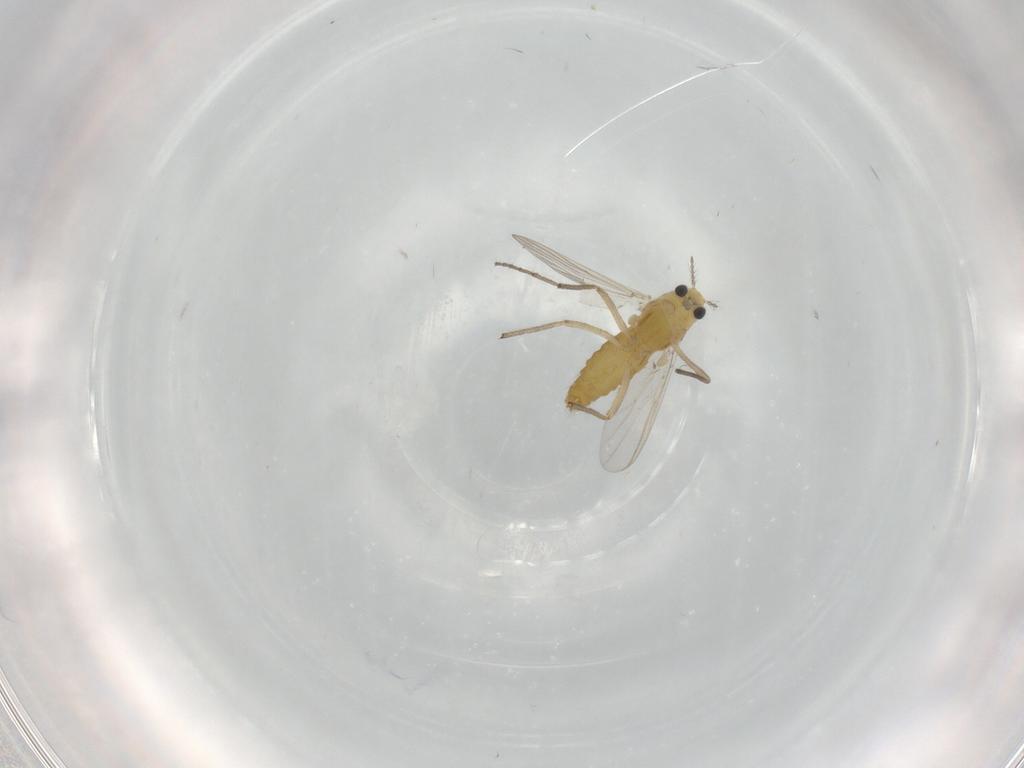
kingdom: Animalia
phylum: Arthropoda
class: Insecta
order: Diptera
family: Chironomidae
